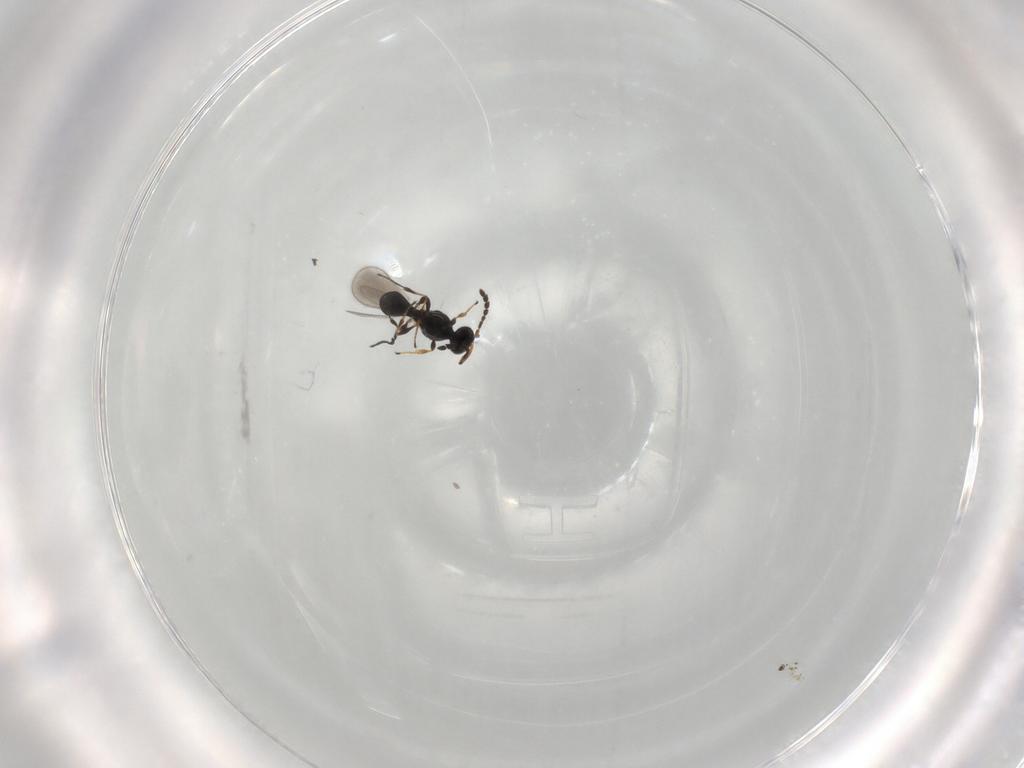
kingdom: Animalia
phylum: Arthropoda
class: Insecta
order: Hymenoptera
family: Platygastridae
